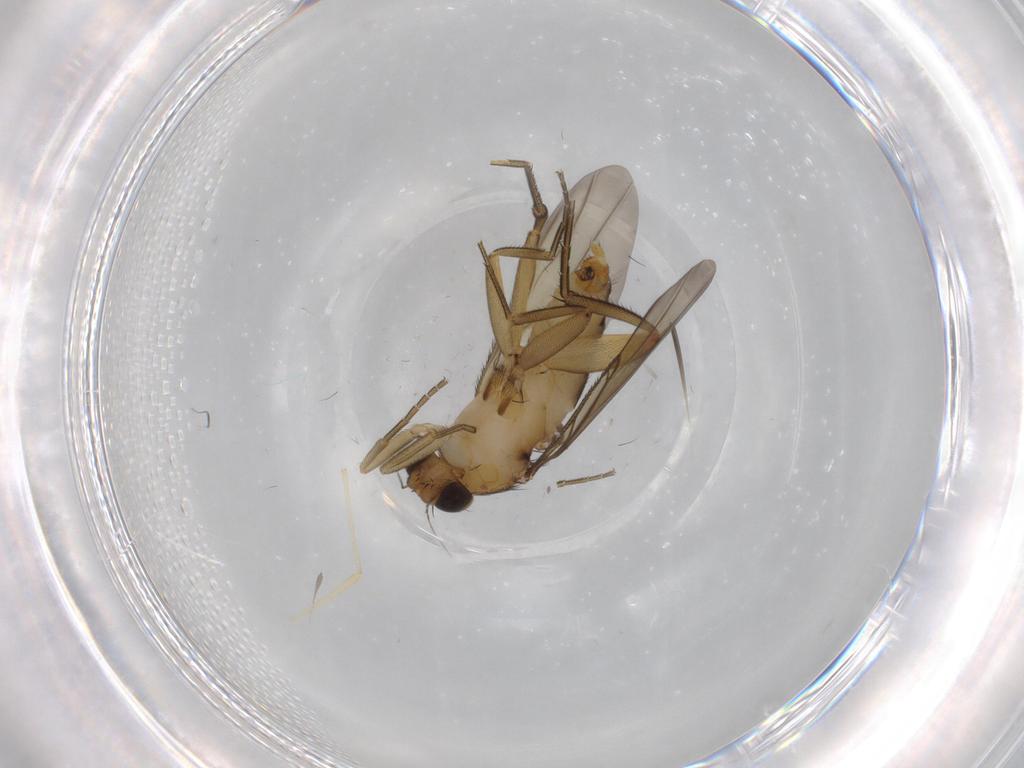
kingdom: Animalia
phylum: Arthropoda
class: Insecta
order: Diptera
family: Phoridae
